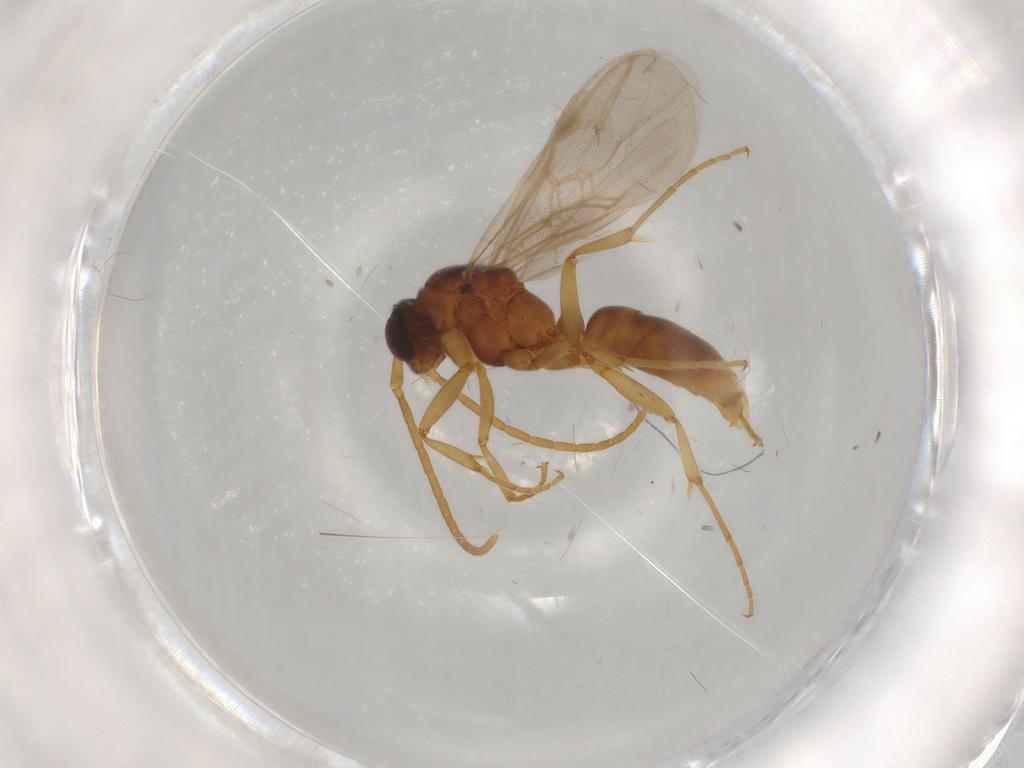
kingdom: Animalia
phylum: Arthropoda
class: Insecta
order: Hymenoptera
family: Formicidae
